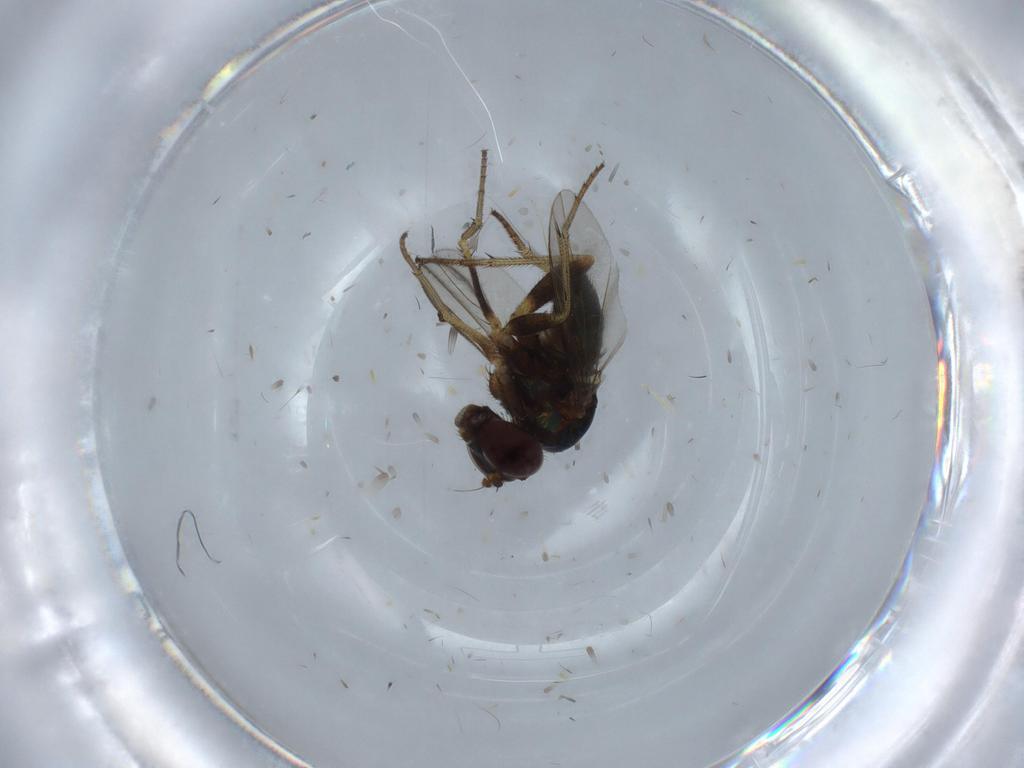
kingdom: Animalia
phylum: Arthropoda
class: Insecta
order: Diptera
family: Chironomidae
